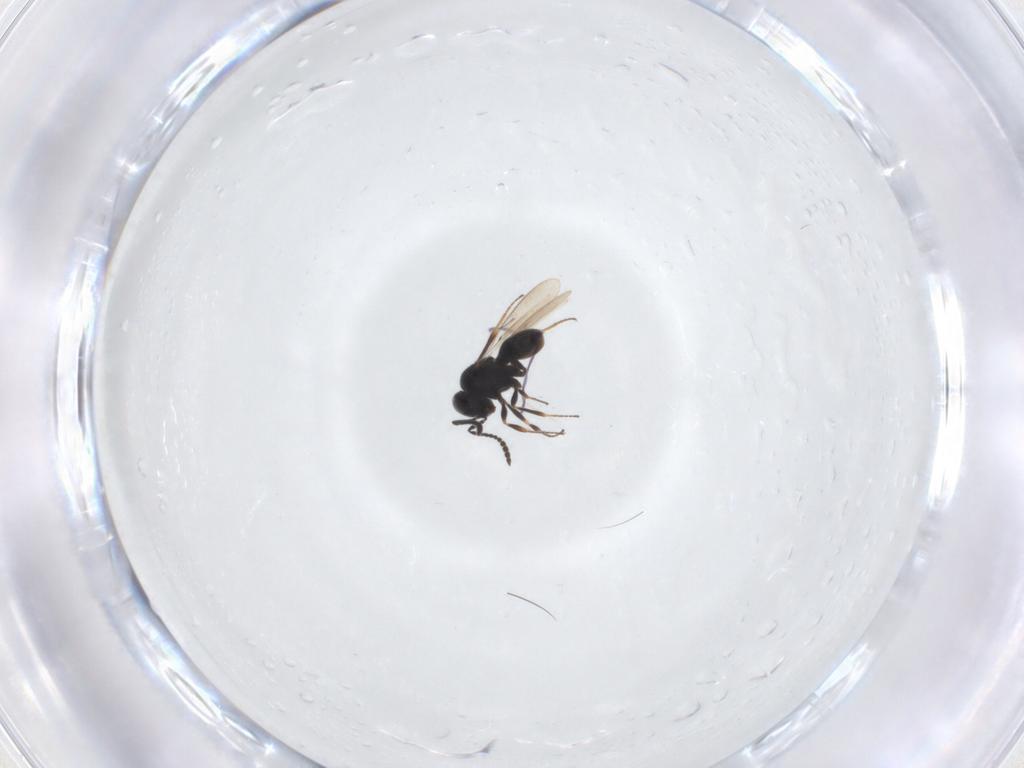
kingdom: Animalia
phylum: Arthropoda
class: Insecta
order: Hymenoptera
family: Scelionidae
